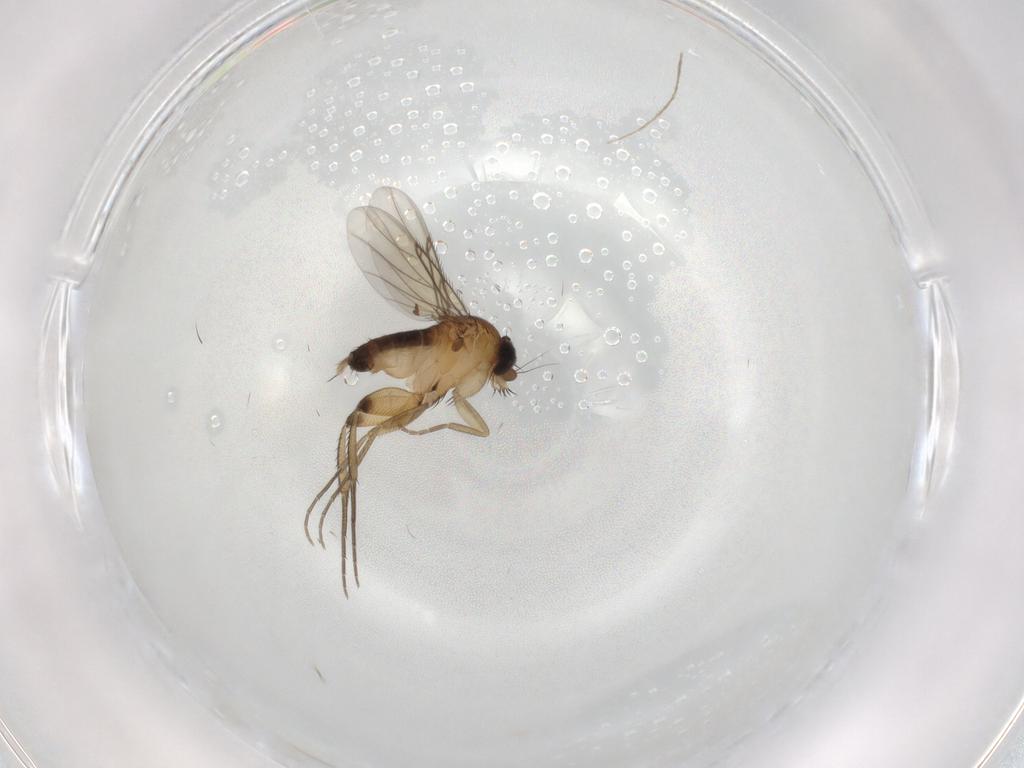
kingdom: Animalia
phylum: Arthropoda
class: Insecta
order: Diptera
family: Phoridae
